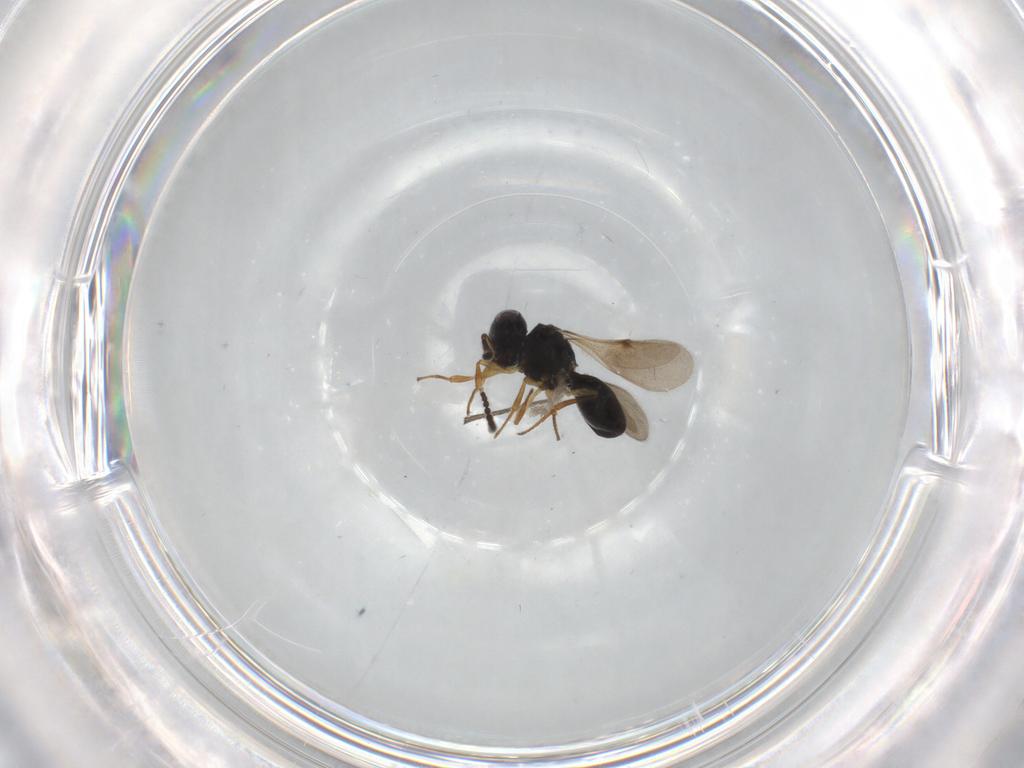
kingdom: Animalia
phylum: Arthropoda
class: Insecta
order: Hymenoptera
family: Scelionidae
